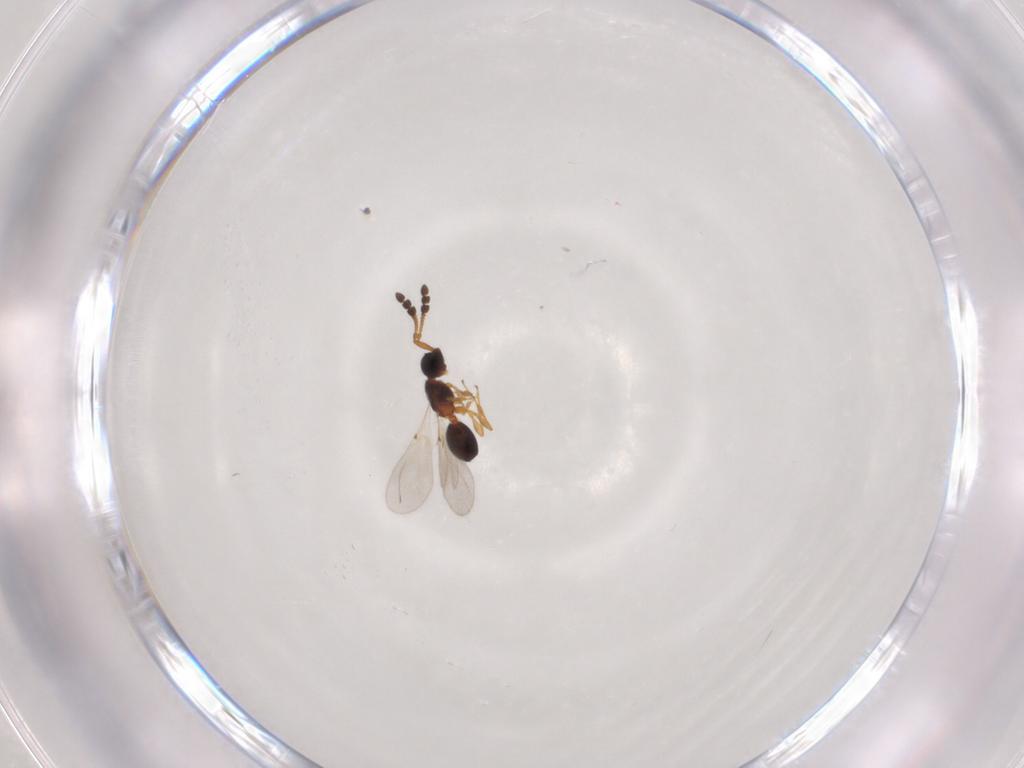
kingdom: Animalia
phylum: Arthropoda
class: Insecta
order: Hymenoptera
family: Diapriidae
